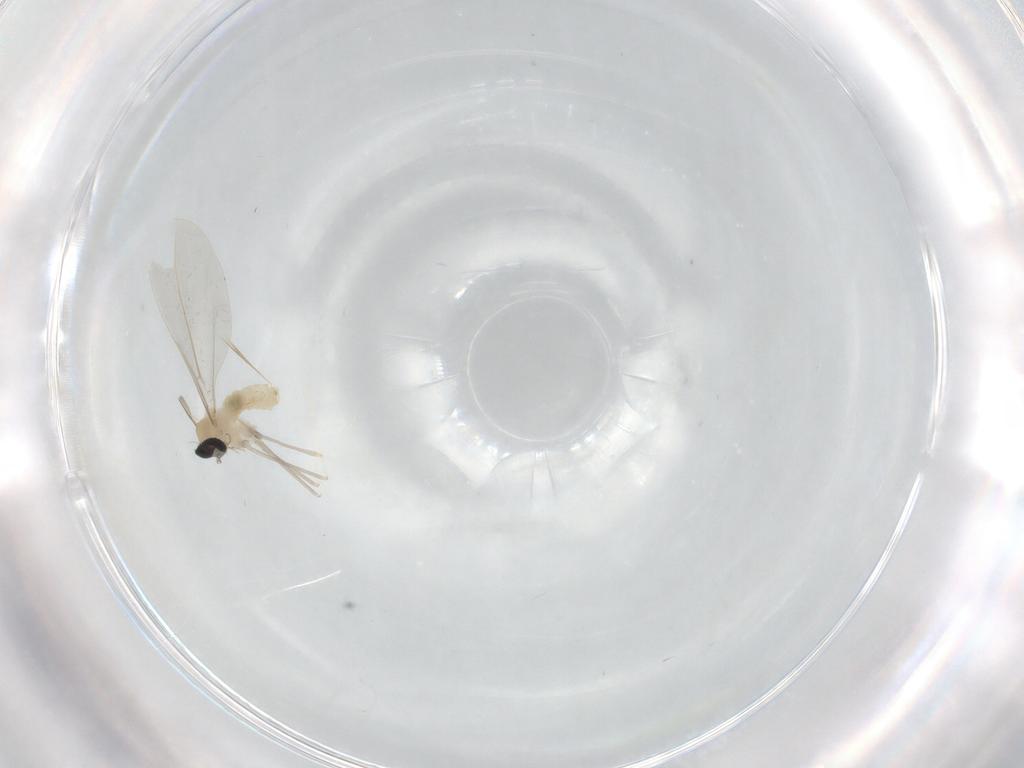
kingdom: Animalia
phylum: Arthropoda
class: Insecta
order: Diptera
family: Cecidomyiidae
